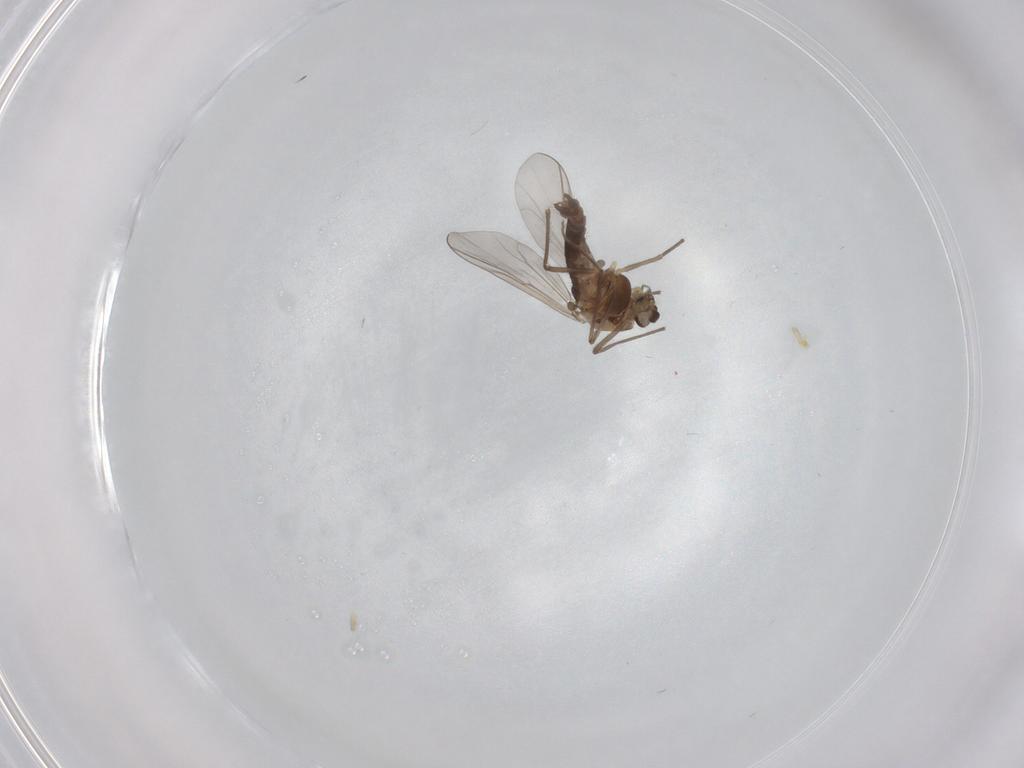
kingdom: Animalia
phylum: Arthropoda
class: Insecta
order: Diptera
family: Chironomidae
